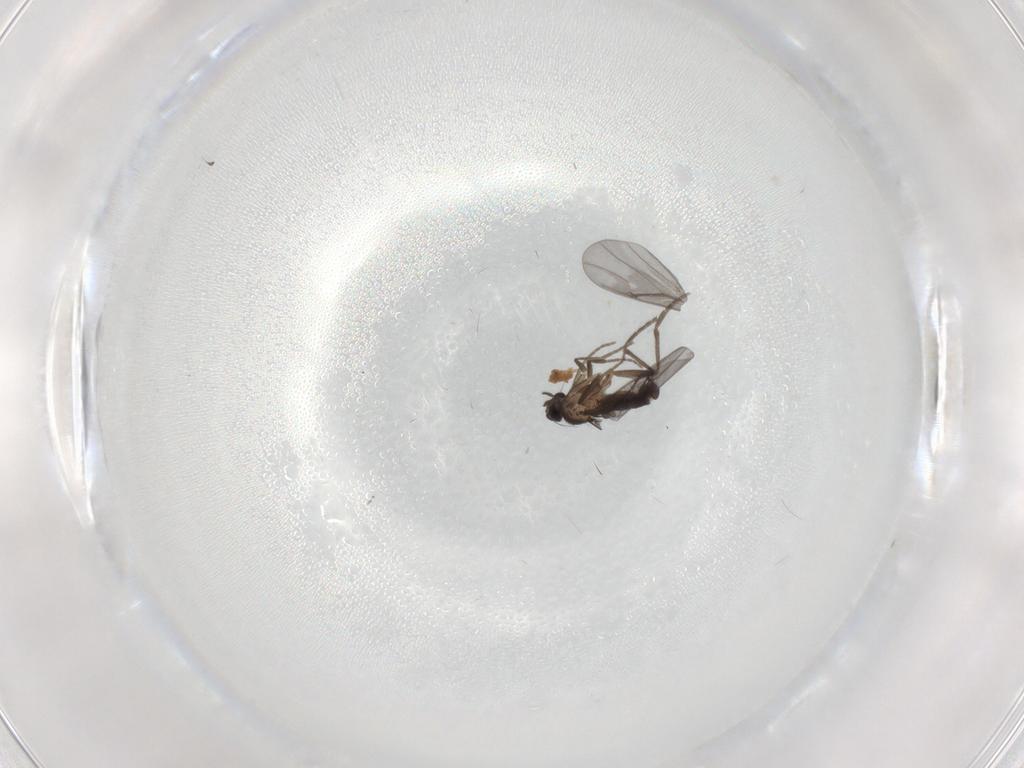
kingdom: Animalia
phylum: Arthropoda
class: Insecta
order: Diptera
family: Phoridae
